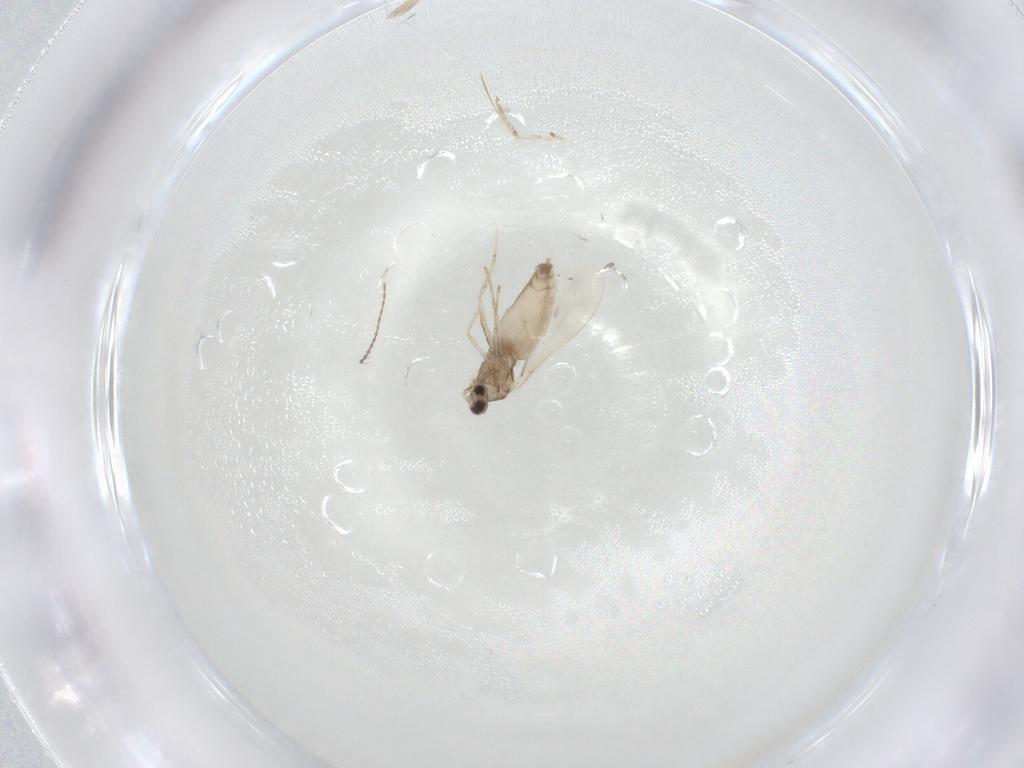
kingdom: Animalia
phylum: Arthropoda
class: Insecta
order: Diptera
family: Cecidomyiidae
